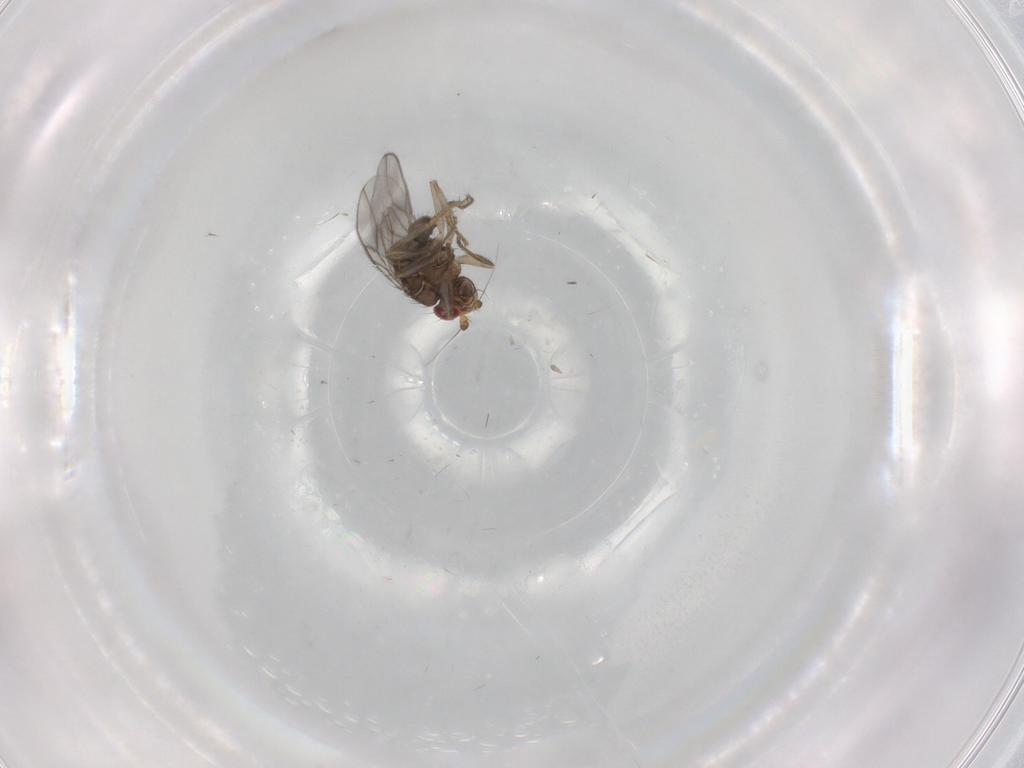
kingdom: Animalia
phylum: Arthropoda
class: Insecta
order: Diptera
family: Sphaeroceridae
